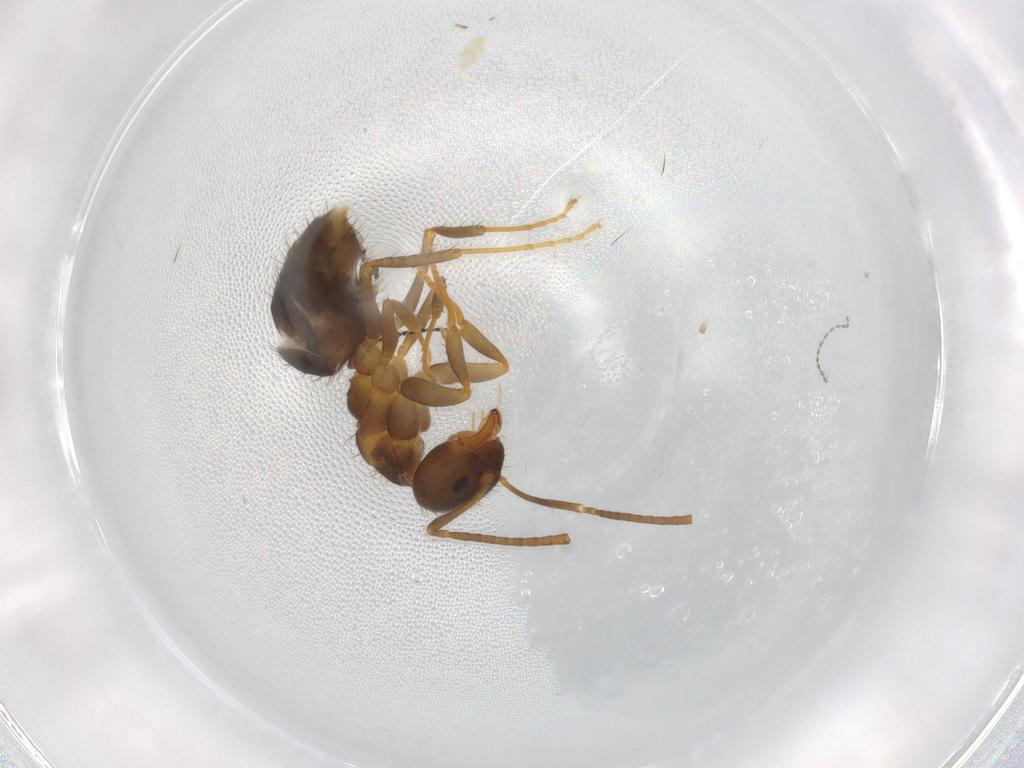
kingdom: Animalia
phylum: Arthropoda
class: Insecta
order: Hymenoptera
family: Formicidae
